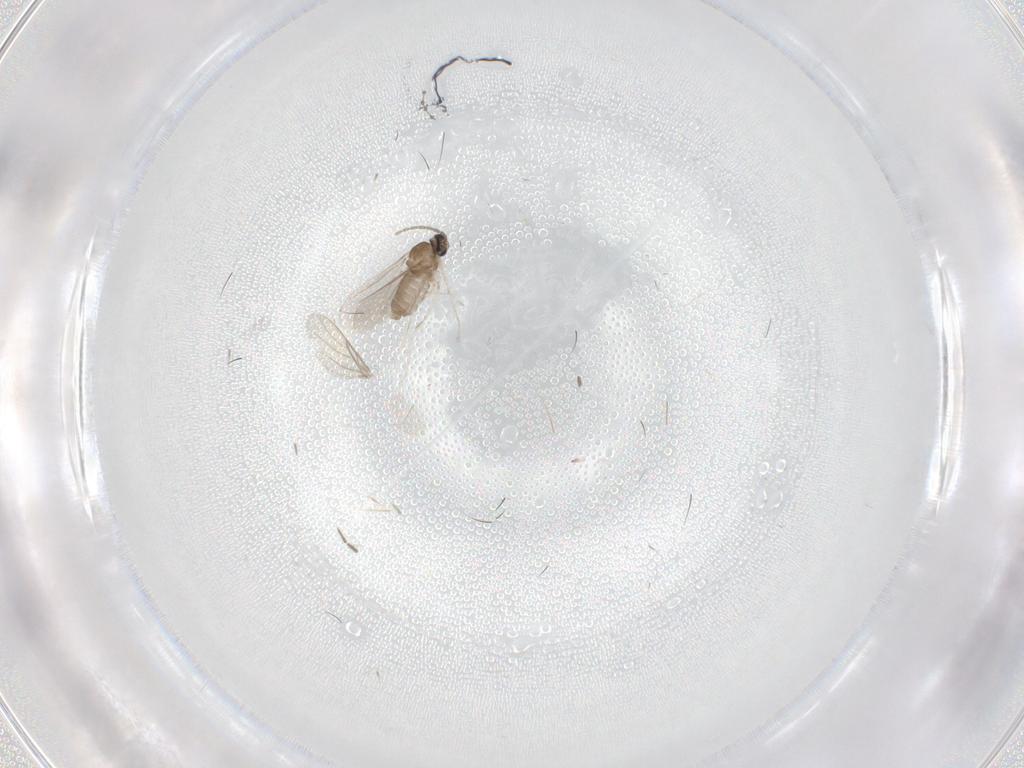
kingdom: Animalia
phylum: Arthropoda
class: Insecta
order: Diptera
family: Cecidomyiidae
